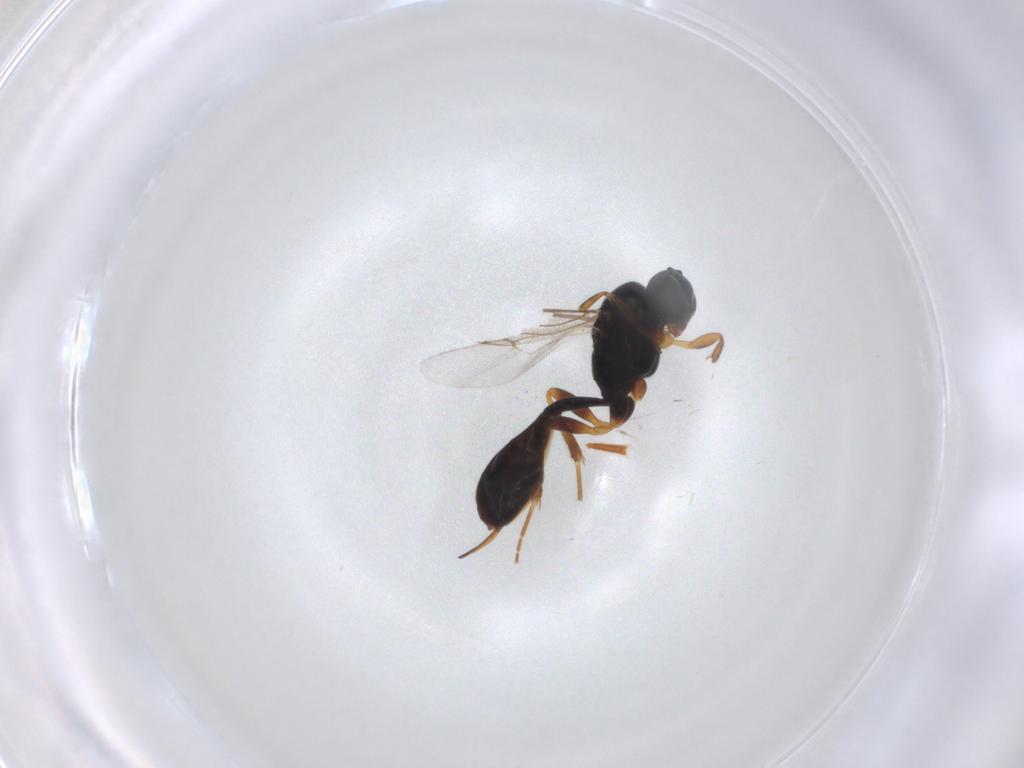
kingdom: Animalia
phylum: Arthropoda
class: Insecta
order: Hymenoptera
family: Ichneumonidae
